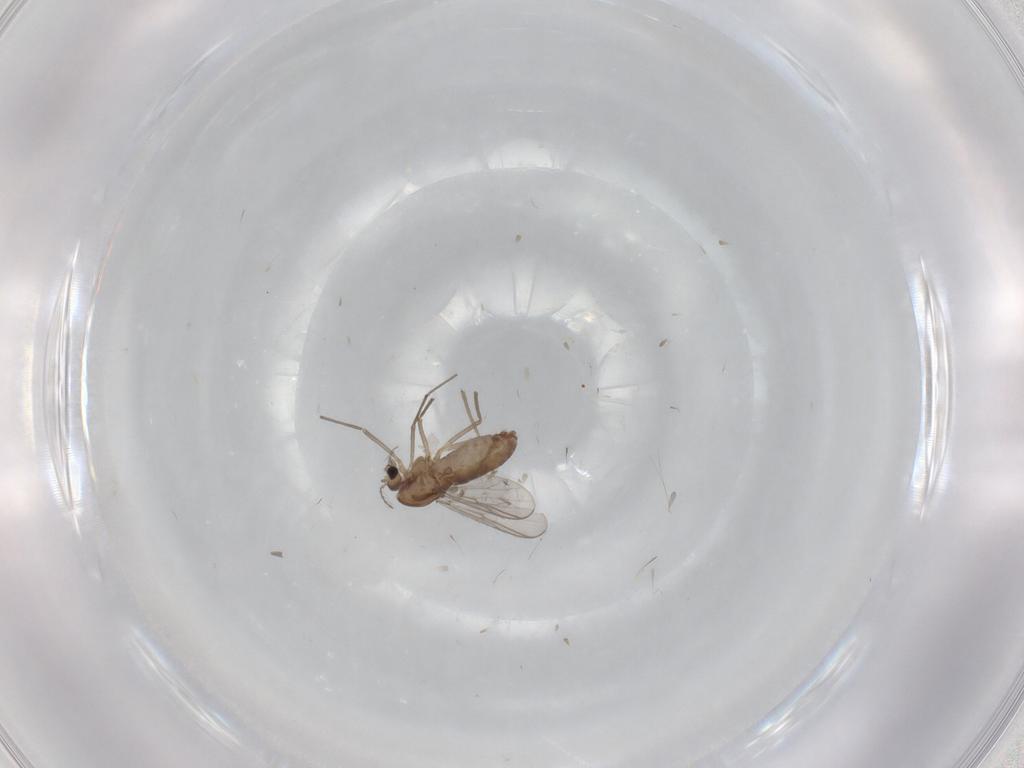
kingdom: Animalia
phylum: Arthropoda
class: Insecta
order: Diptera
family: Chironomidae
